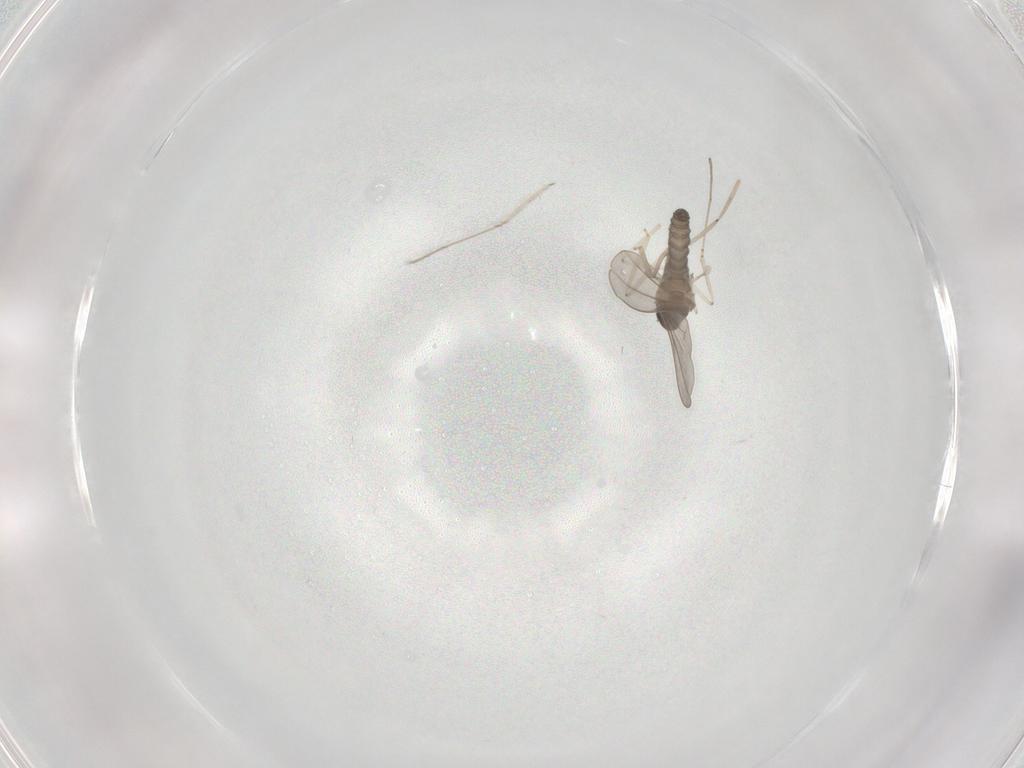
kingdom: Animalia
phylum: Arthropoda
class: Insecta
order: Diptera
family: Cecidomyiidae
